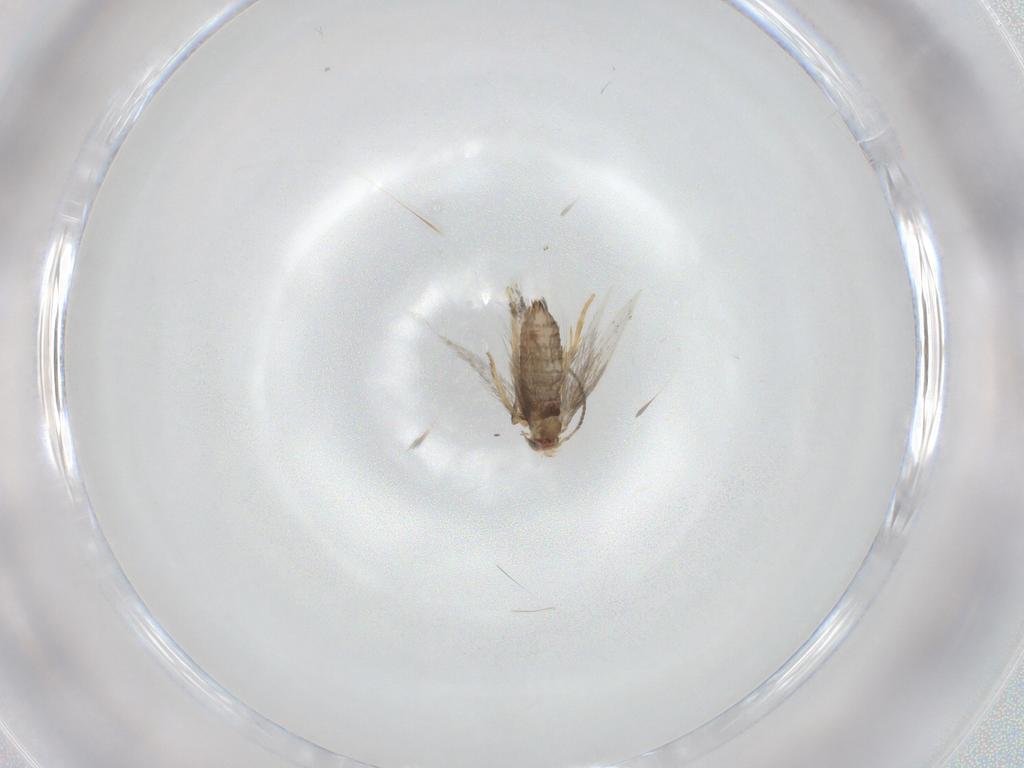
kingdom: Animalia
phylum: Arthropoda
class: Insecta
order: Lepidoptera
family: Nepticulidae
